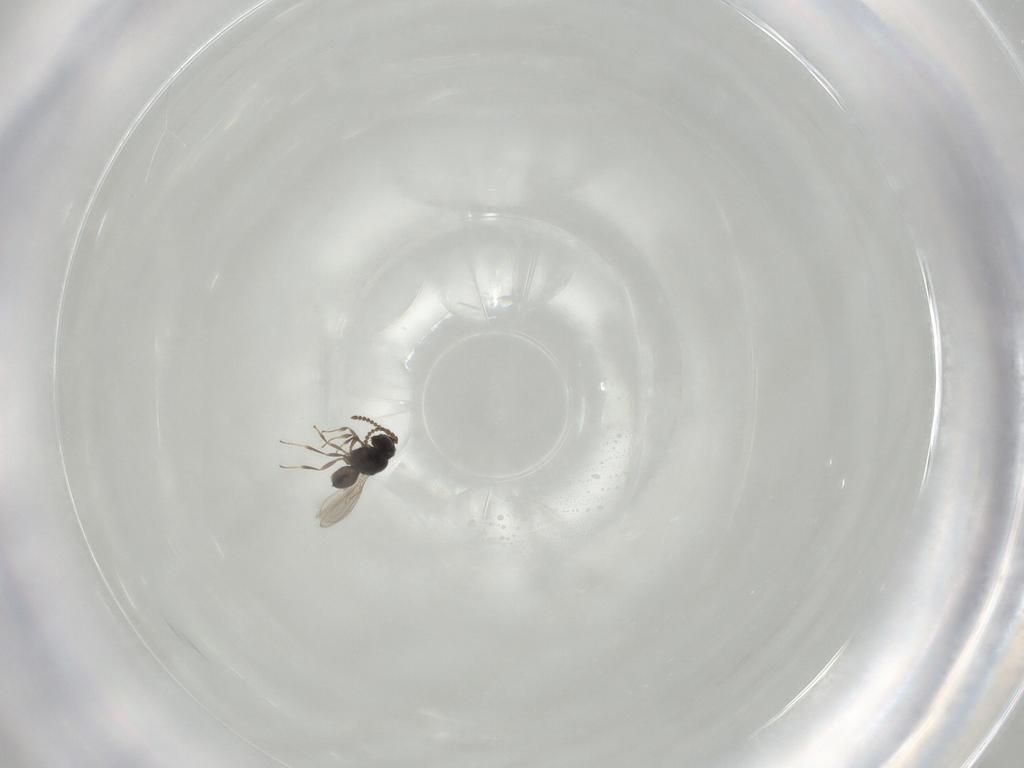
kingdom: Animalia
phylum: Arthropoda
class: Insecta
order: Hymenoptera
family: Scelionidae
